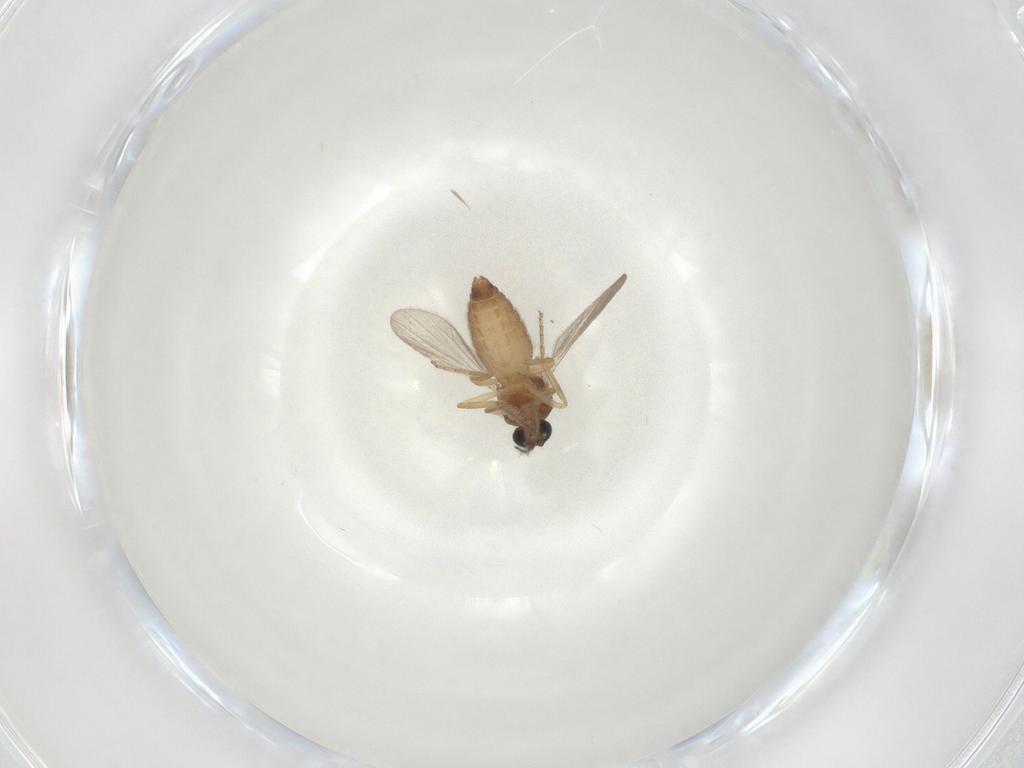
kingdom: Animalia
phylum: Arthropoda
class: Insecta
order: Diptera
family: Ceratopogonidae
